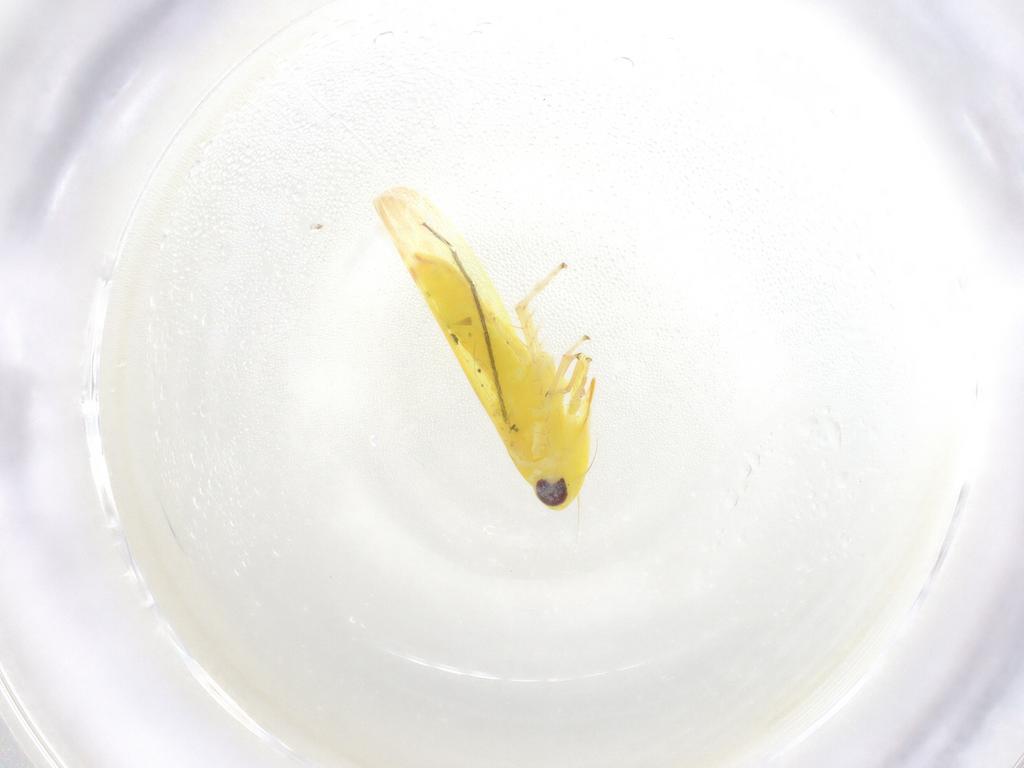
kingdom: Animalia
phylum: Arthropoda
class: Insecta
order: Hemiptera
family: Cicadellidae
